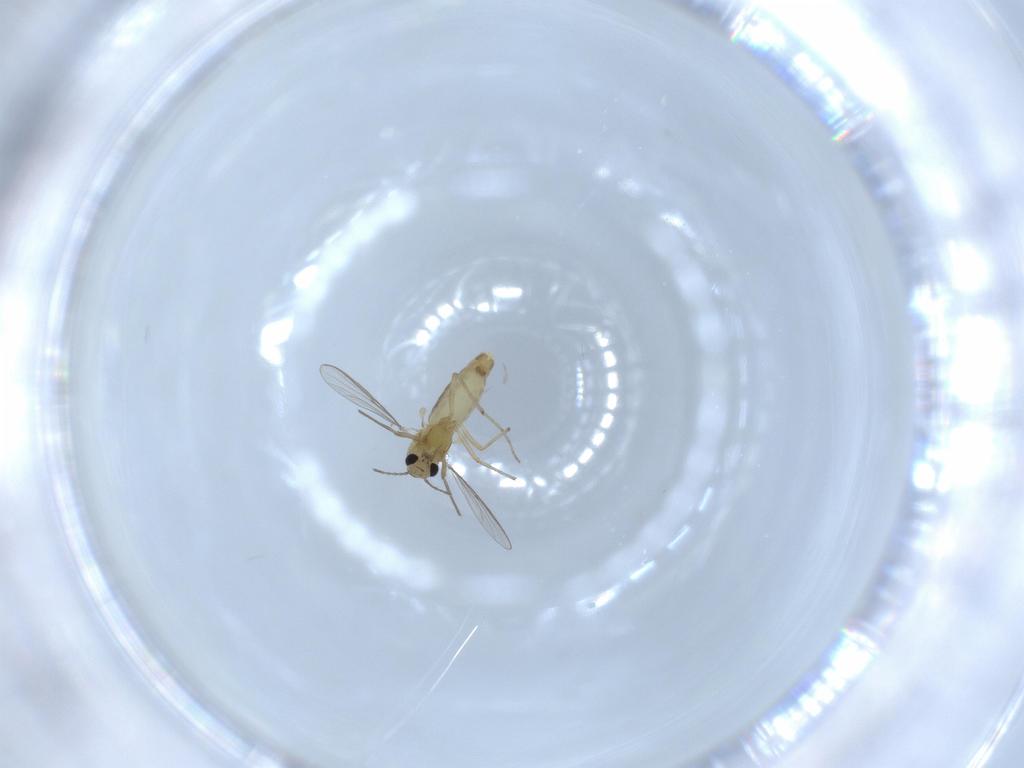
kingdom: Animalia
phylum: Arthropoda
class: Insecta
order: Diptera
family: Chironomidae
